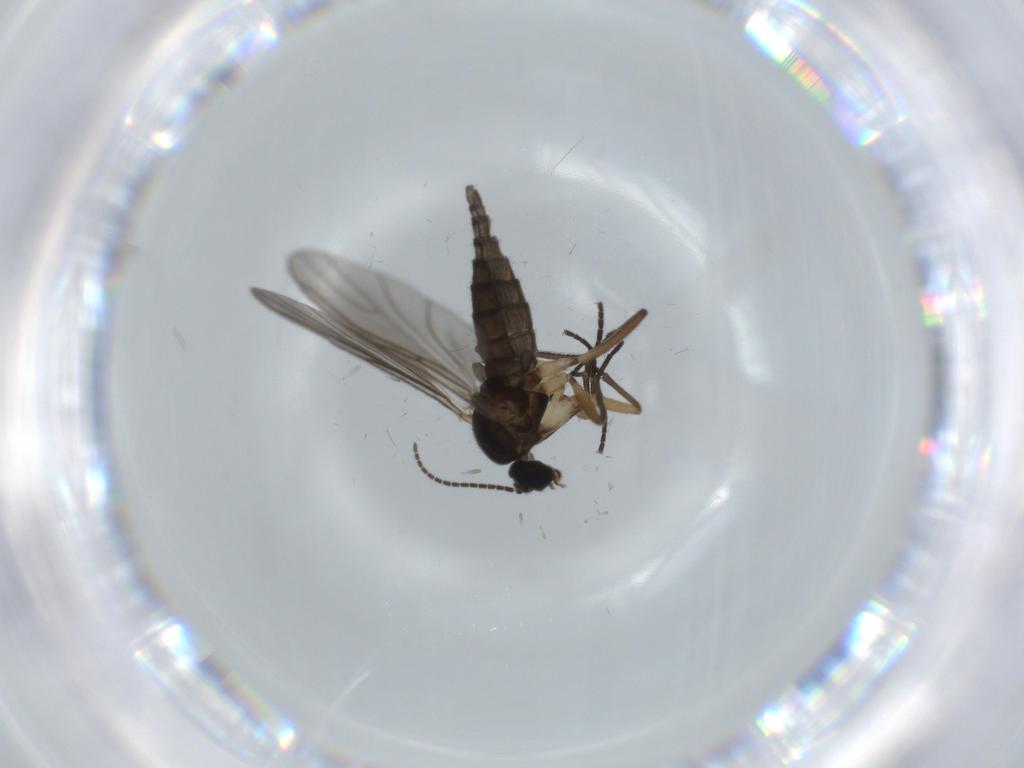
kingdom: Animalia
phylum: Arthropoda
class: Insecta
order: Diptera
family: Sciaridae
